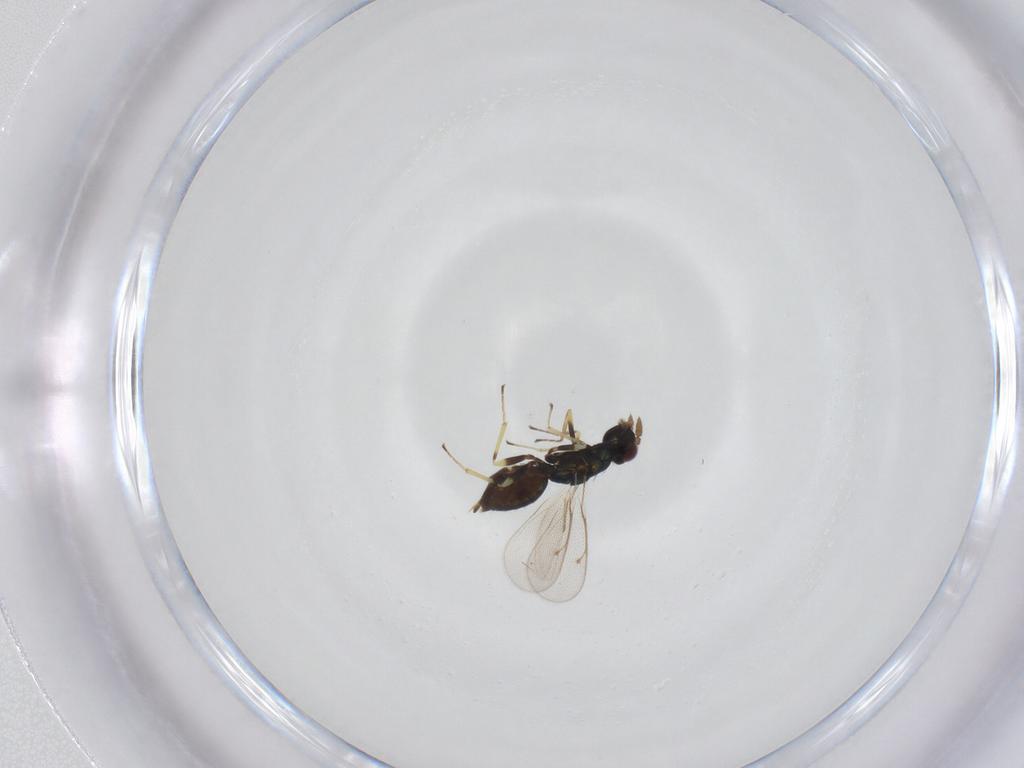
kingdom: Animalia
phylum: Arthropoda
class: Insecta
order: Hymenoptera
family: Eulophidae
